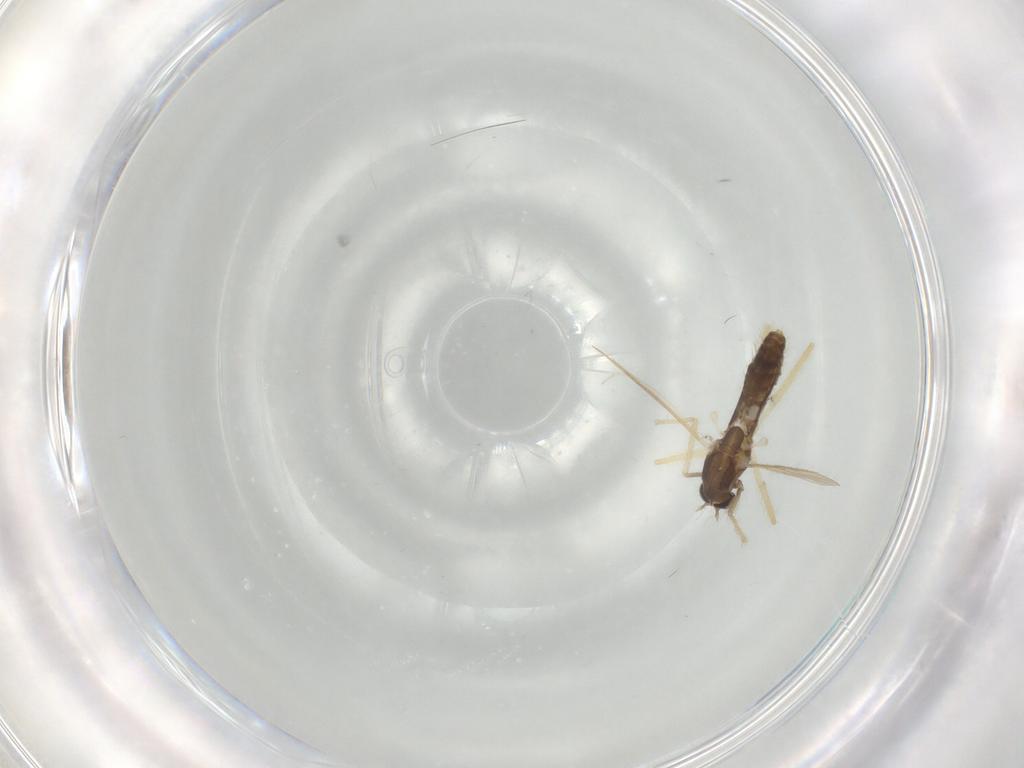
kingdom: Animalia
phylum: Arthropoda
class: Insecta
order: Diptera
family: Chironomidae
